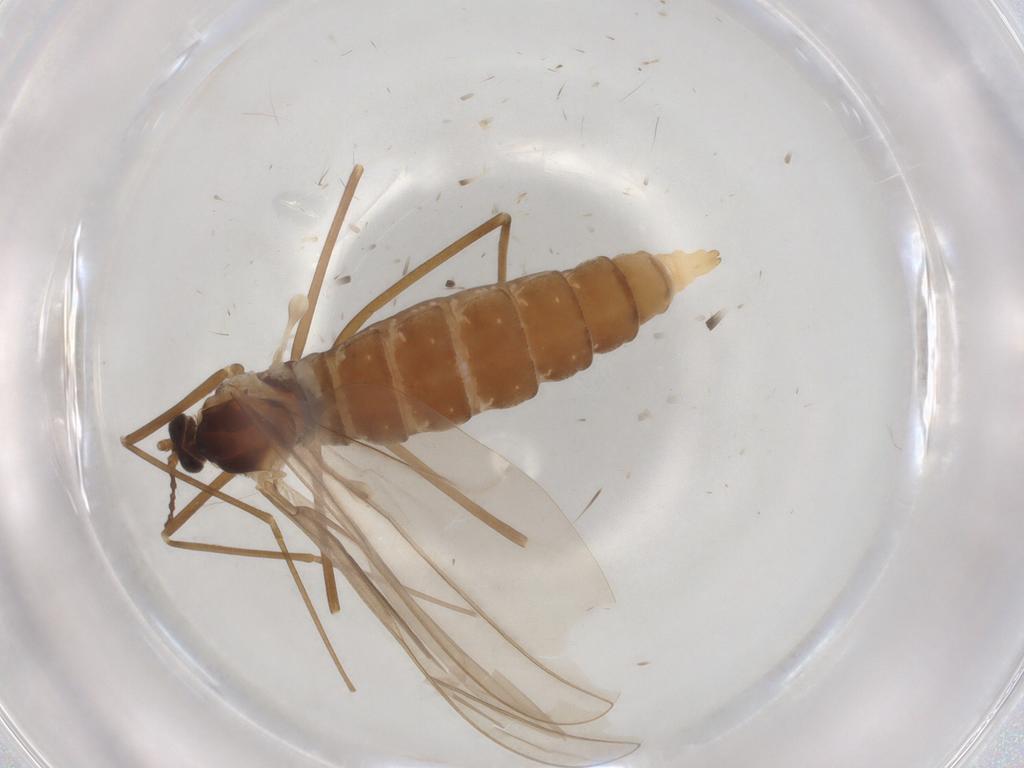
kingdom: Animalia
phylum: Arthropoda
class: Insecta
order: Diptera
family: Cecidomyiidae
